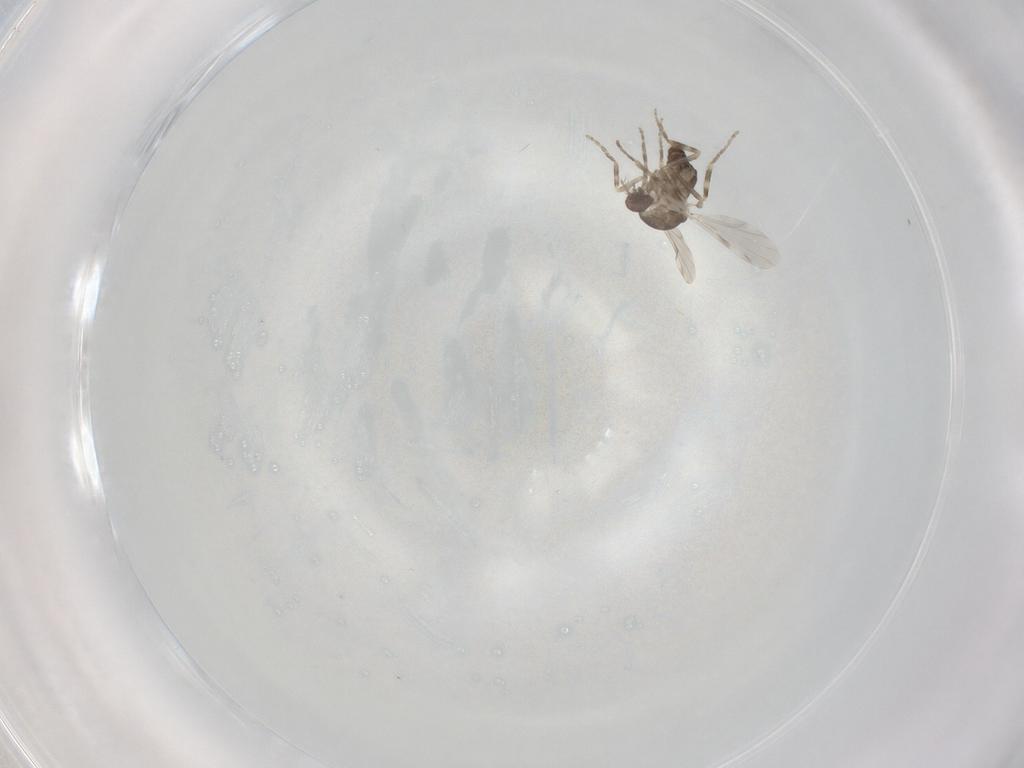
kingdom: Animalia
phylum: Arthropoda
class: Insecta
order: Diptera
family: Ceratopogonidae
